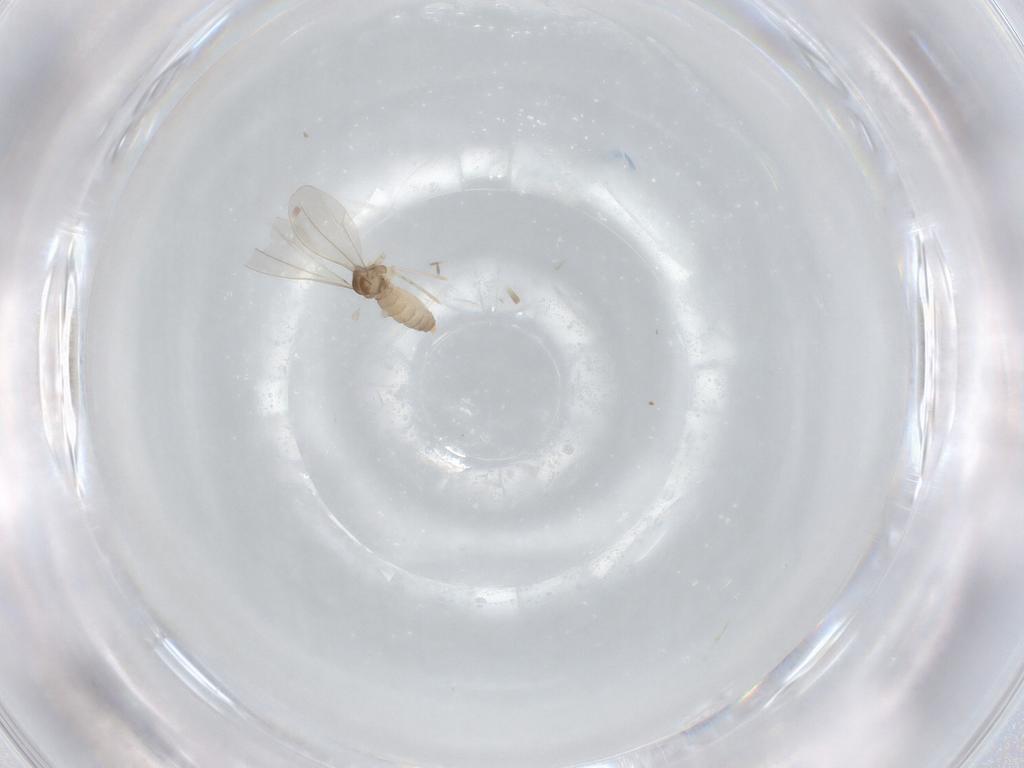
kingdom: Animalia
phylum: Arthropoda
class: Insecta
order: Diptera
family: Cecidomyiidae
